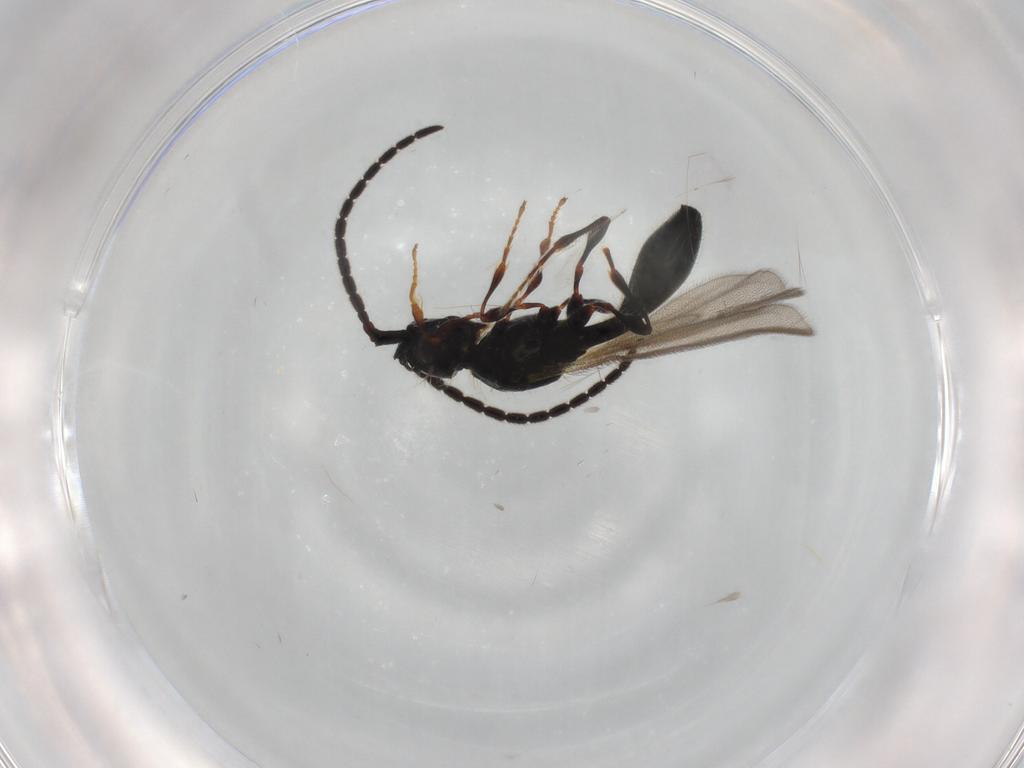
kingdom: Animalia
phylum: Arthropoda
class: Insecta
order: Hymenoptera
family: Diapriidae
